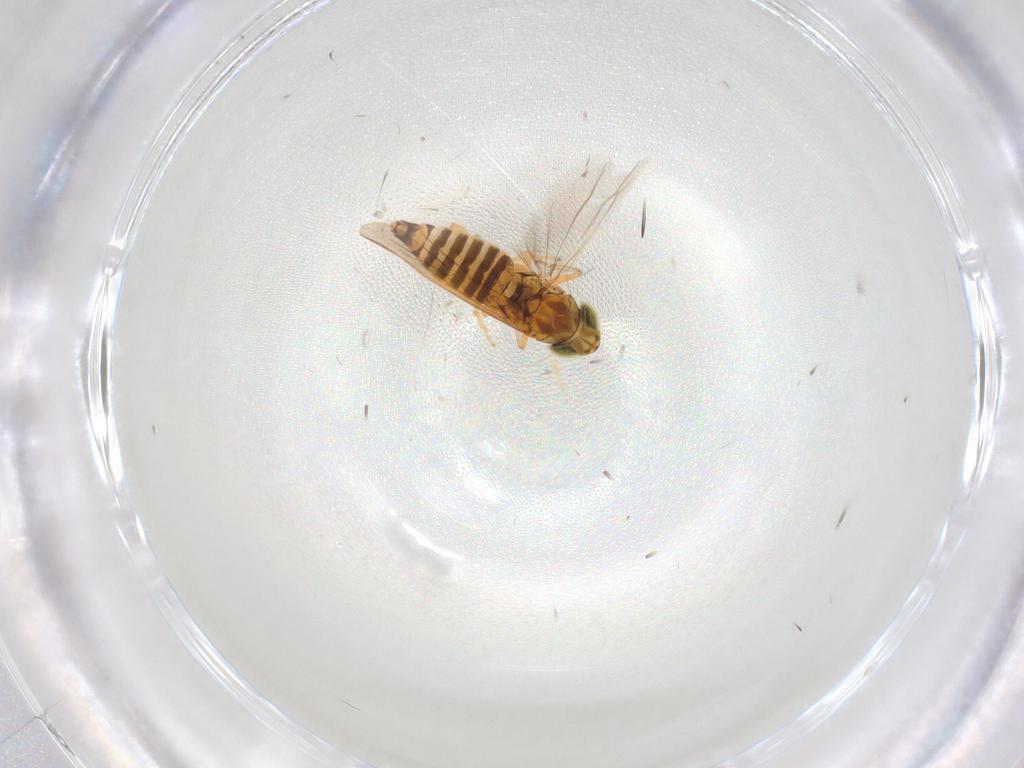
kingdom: Animalia
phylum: Arthropoda
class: Insecta
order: Hemiptera
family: Cicadellidae
